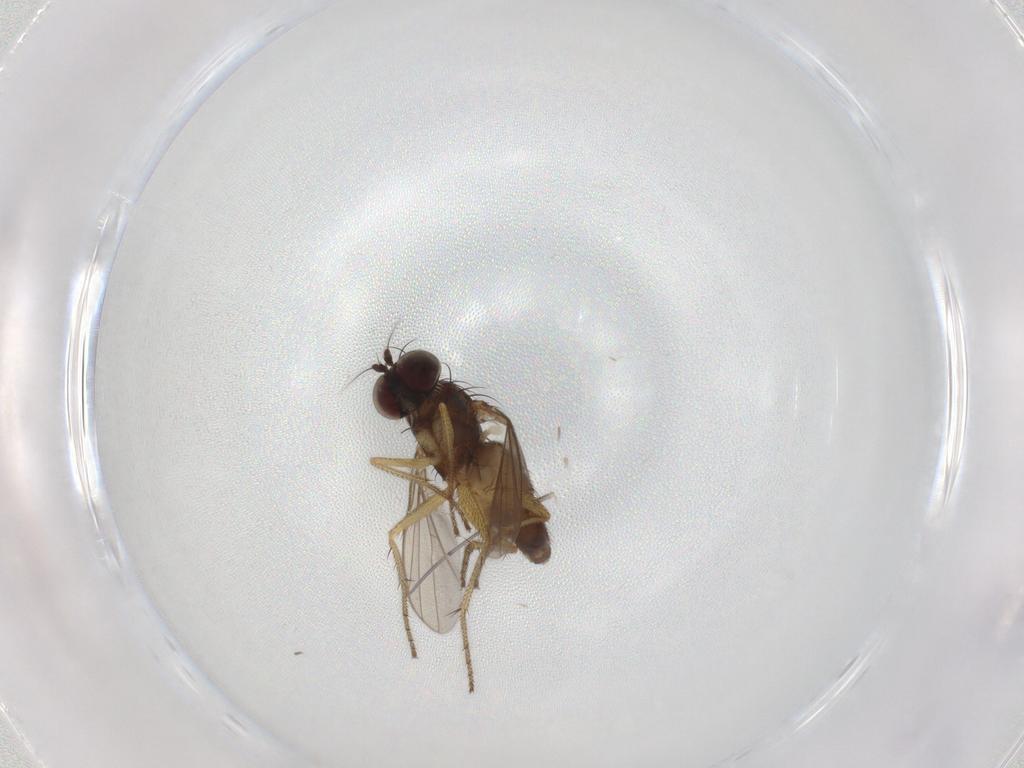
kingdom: Animalia
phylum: Arthropoda
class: Insecta
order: Diptera
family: Dolichopodidae
